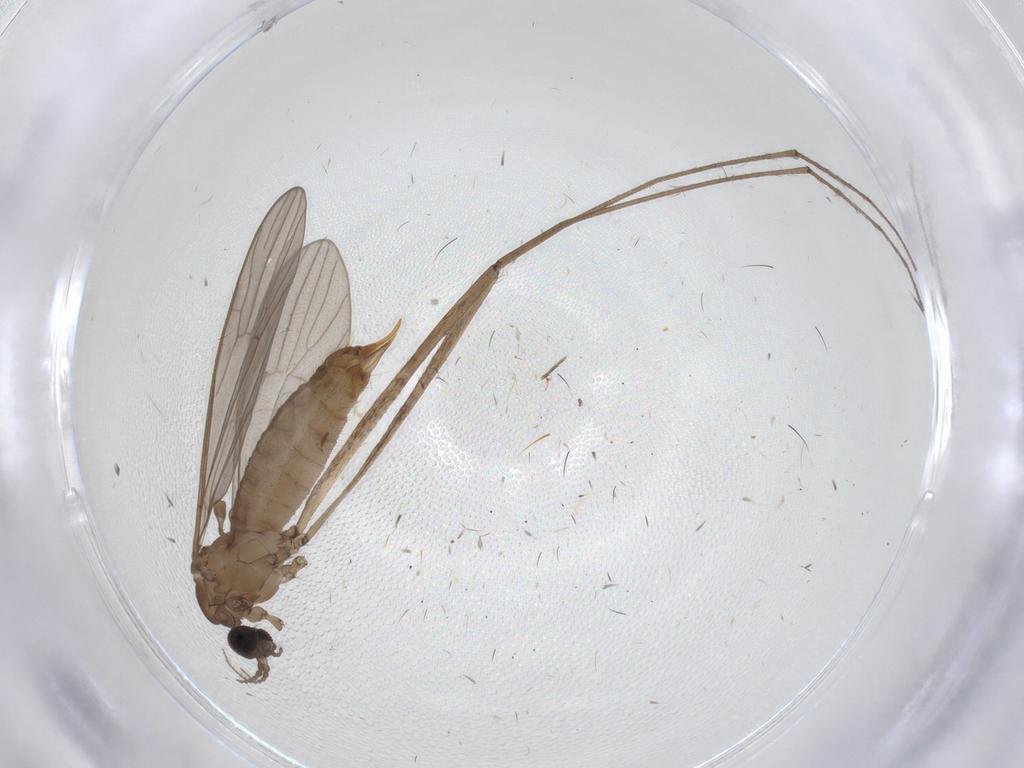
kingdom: Animalia
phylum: Arthropoda
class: Insecta
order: Diptera
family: Limoniidae
